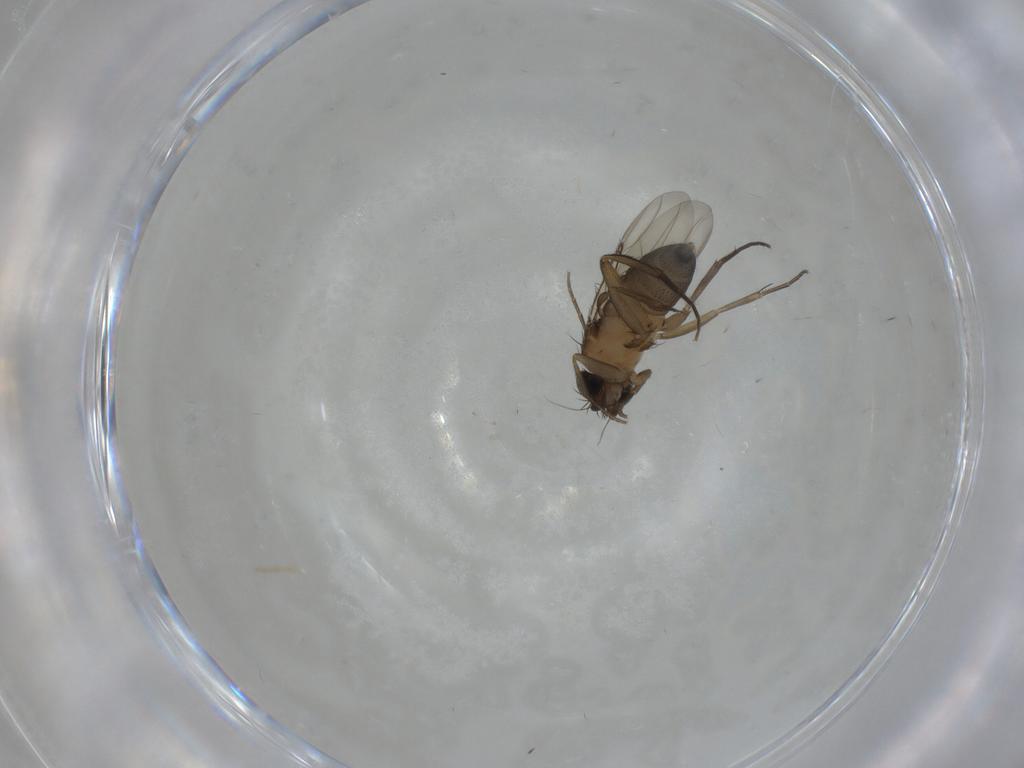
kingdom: Animalia
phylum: Arthropoda
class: Insecta
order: Diptera
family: Phoridae
